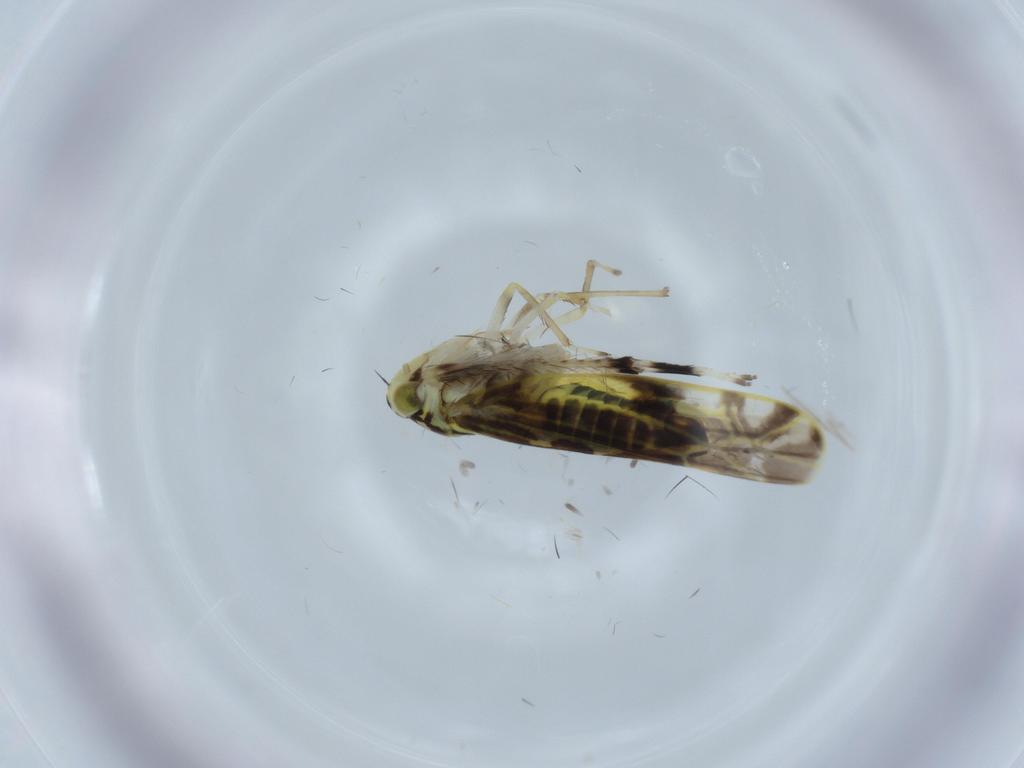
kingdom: Animalia
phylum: Arthropoda
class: Insecta
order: Hemiptera
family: Cicadellidae
